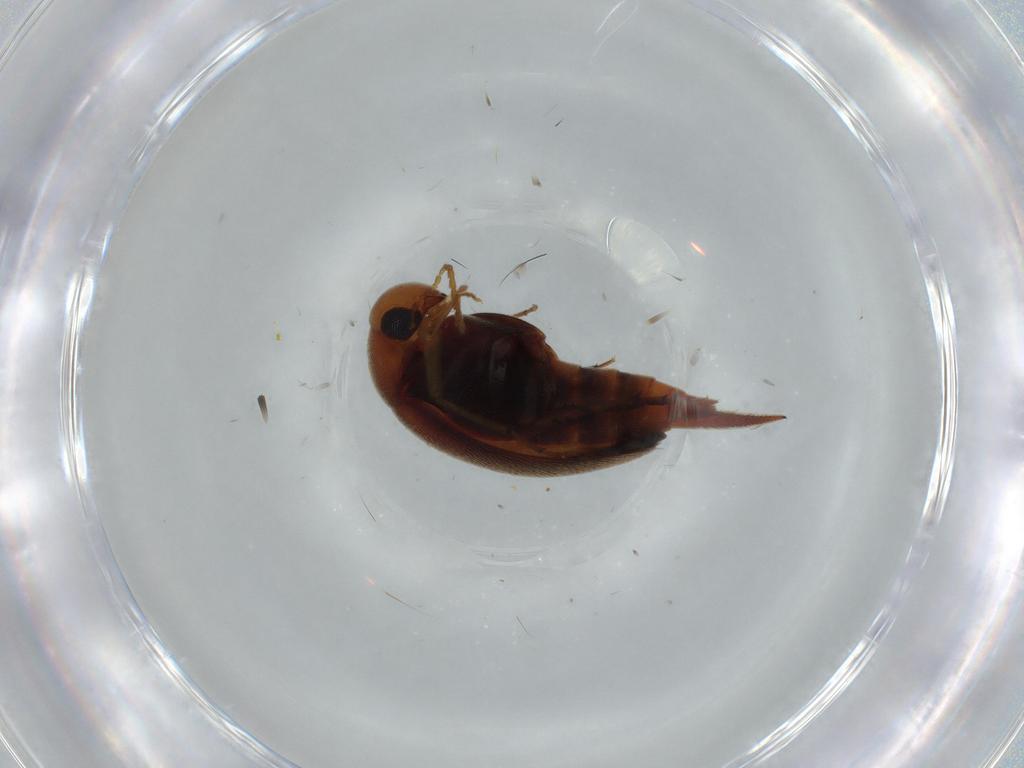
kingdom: Animalia
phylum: Arthropoda
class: Insecta
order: Coleoptera
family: Mordellidae
